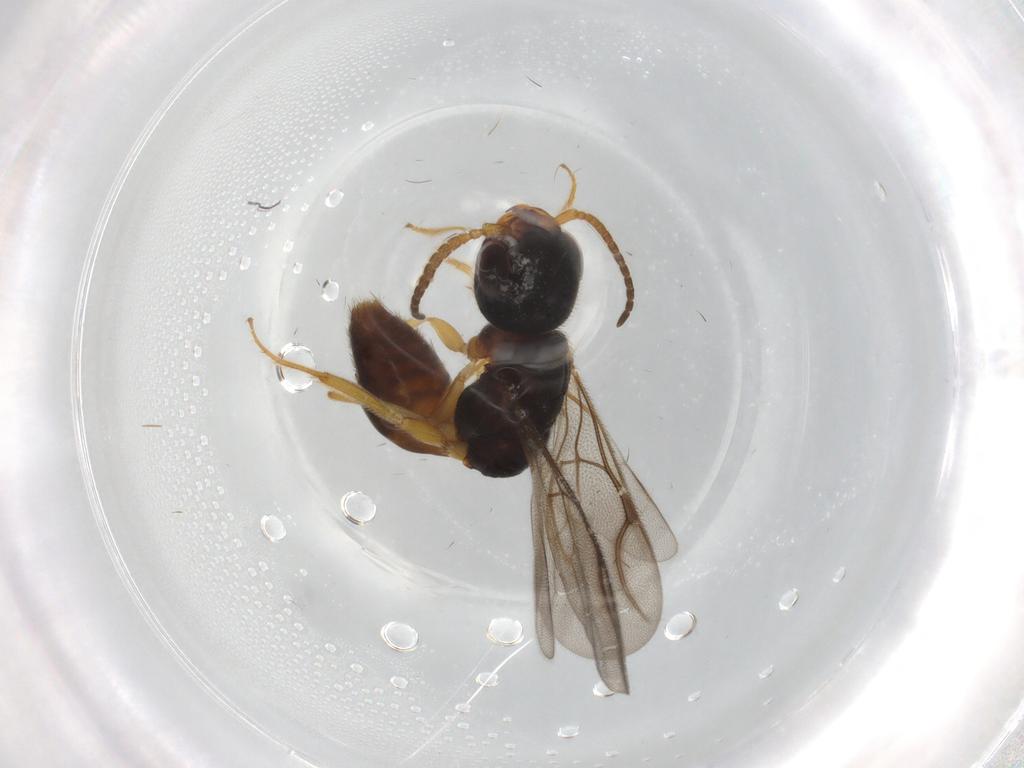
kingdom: Animalia
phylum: Arthropoda
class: Insecta
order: Hymenoptera
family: Bethylidae
